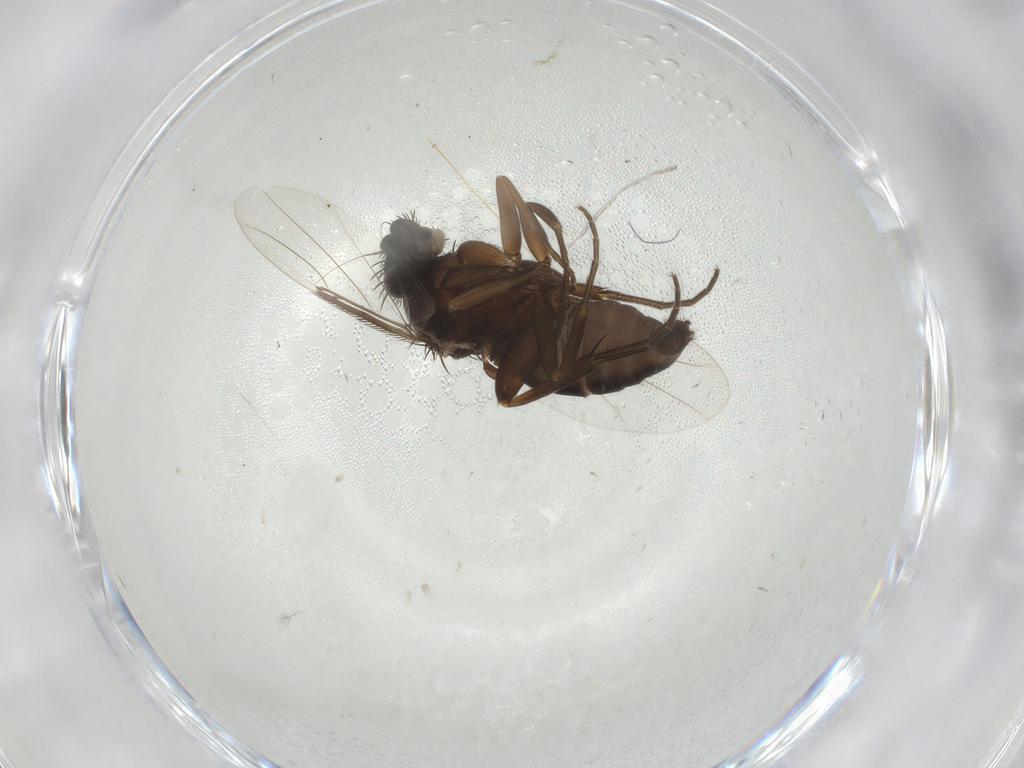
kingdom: Animalia
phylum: Arthropoda
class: Insecta
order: Diptera
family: Phoridae
